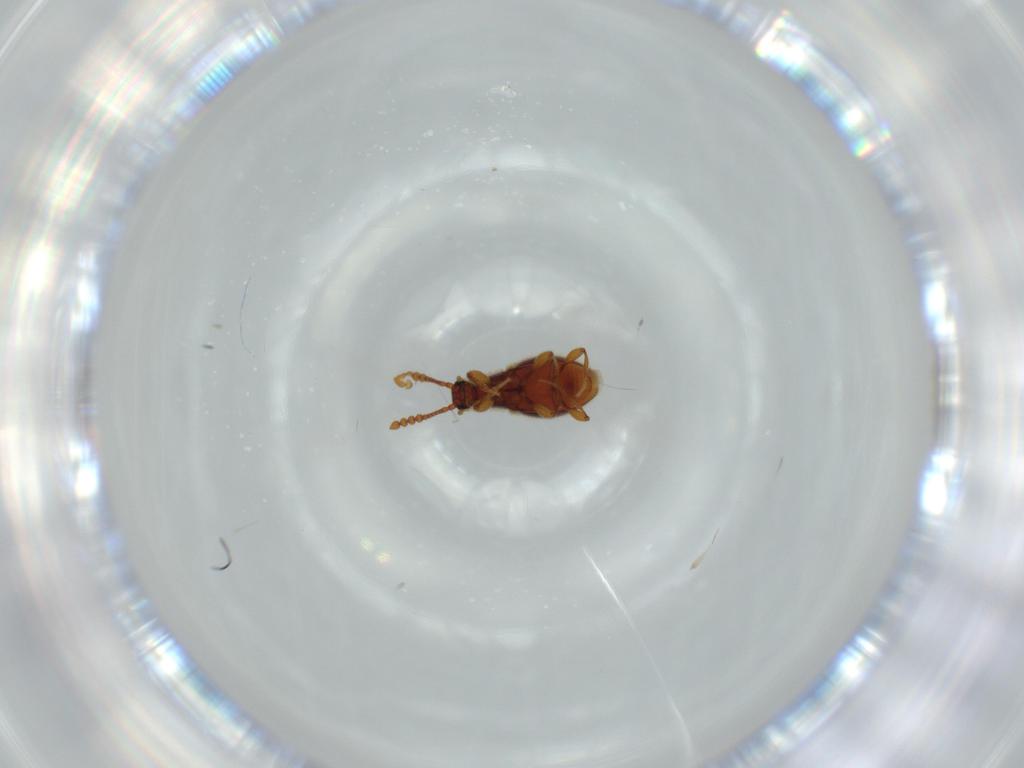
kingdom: Animalia
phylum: Arthropoda
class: Insecta
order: Coleoptera
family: Staphylinidae
